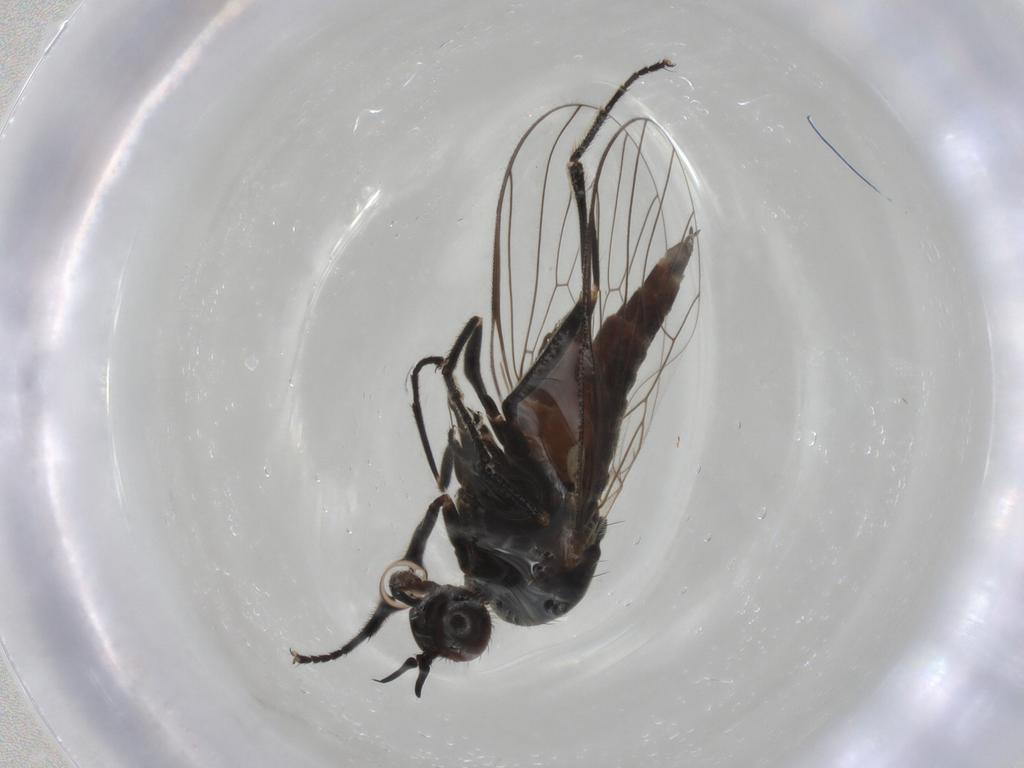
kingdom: Animalia
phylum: Arthropoda
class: Insecta
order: Diptera
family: Empididae
